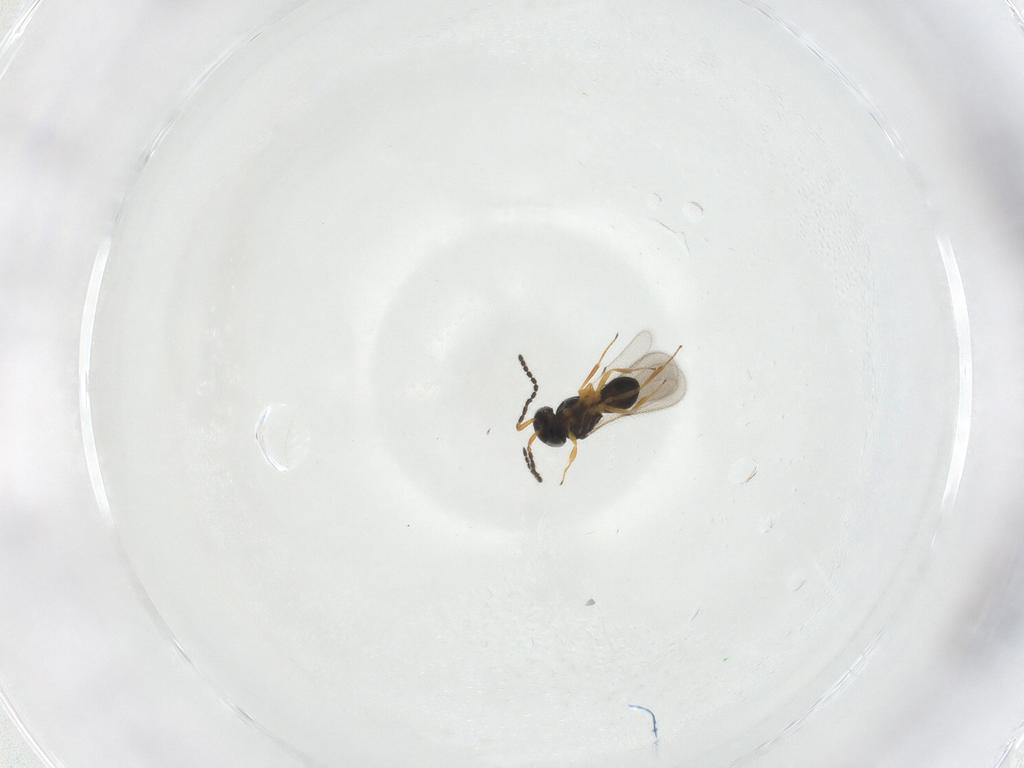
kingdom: Animalia
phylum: Arthropoda
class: Insecta
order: Hymenoptera
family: Scelionidae
